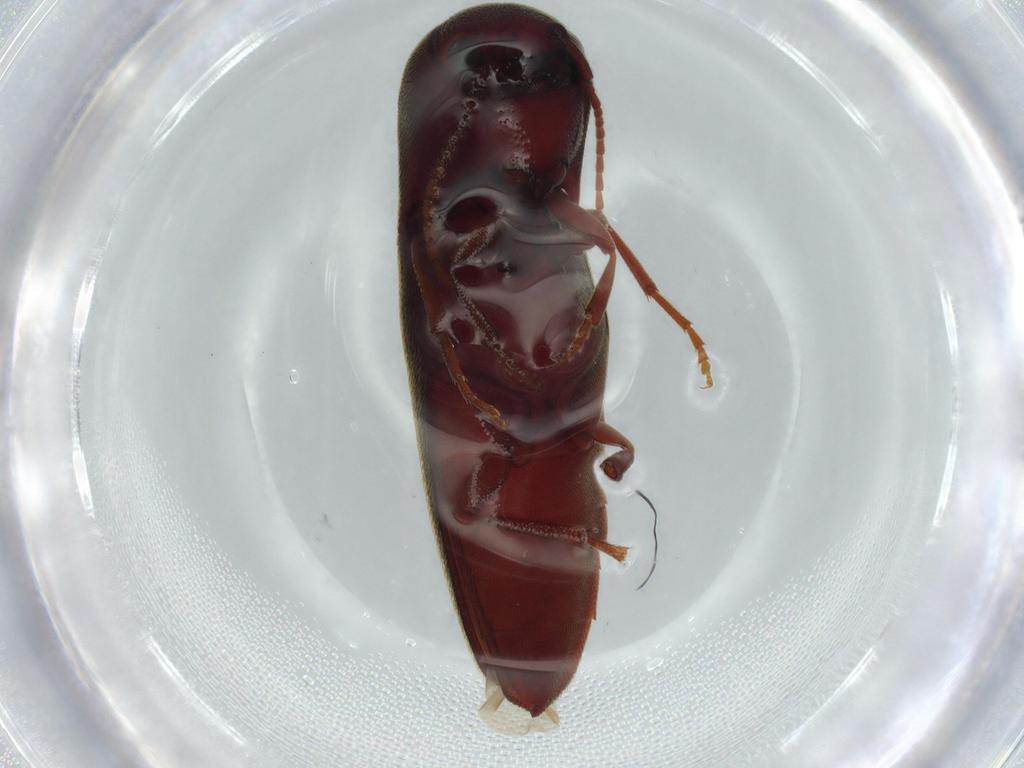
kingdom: Animalia
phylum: Arthropoda
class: Insecta
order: Coleoptera
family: Eucnemidae
